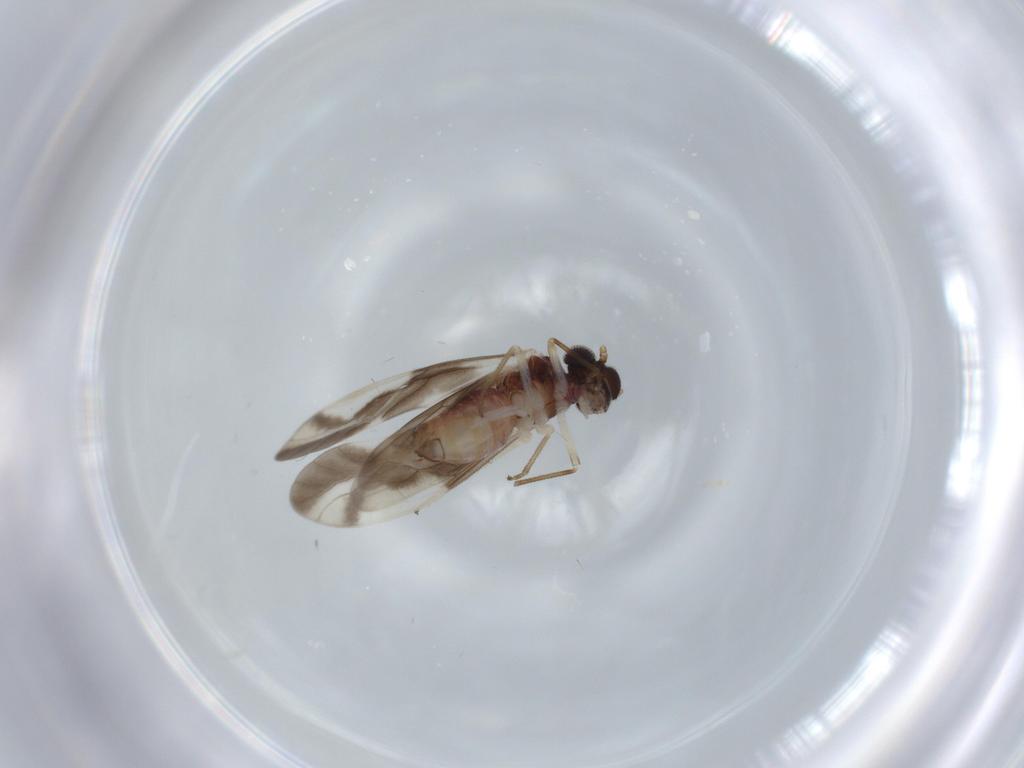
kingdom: Animalia
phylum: Arthropoda
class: Insecta
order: Psocodea
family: Caeciliusidae
